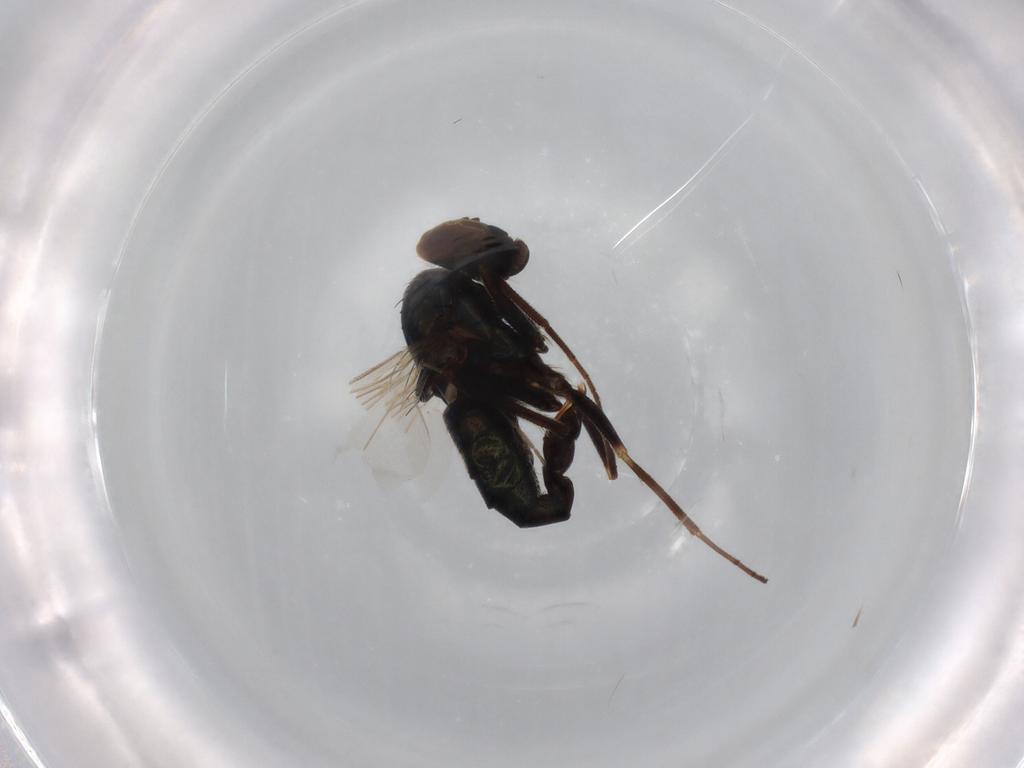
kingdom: Animalia
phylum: Arthropoda
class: Insecta
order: Diptera
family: Dolichopodidae
